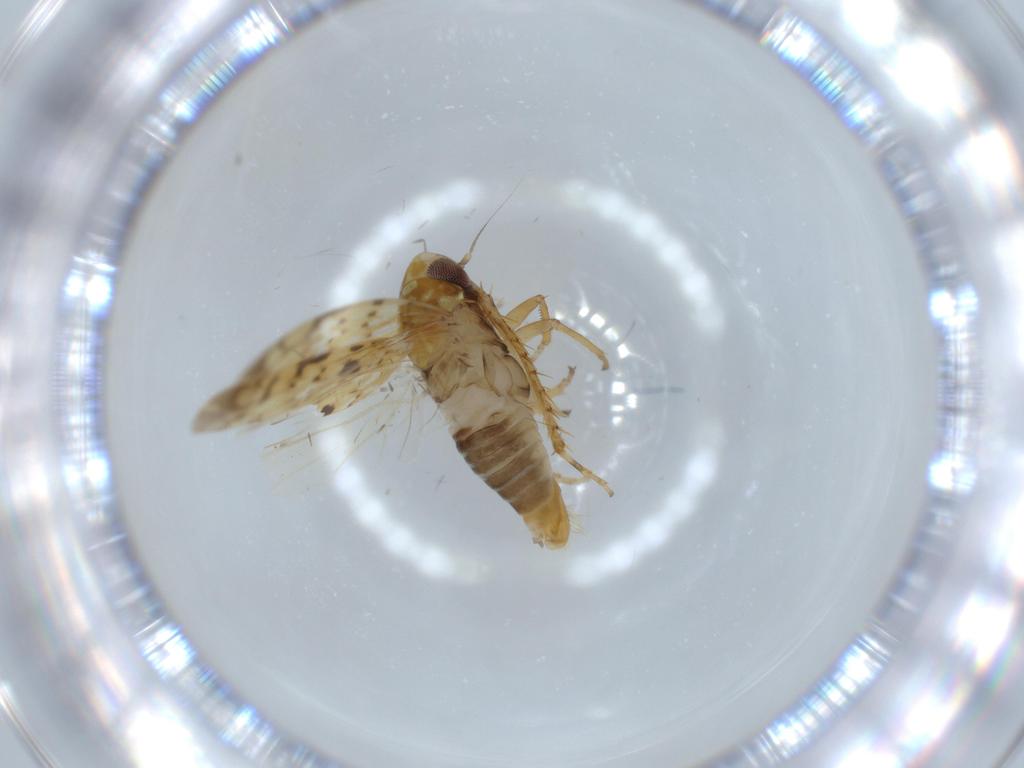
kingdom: Animalia
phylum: Arthropoda
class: Insecta
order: Hemiptera
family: Cicadellidae
